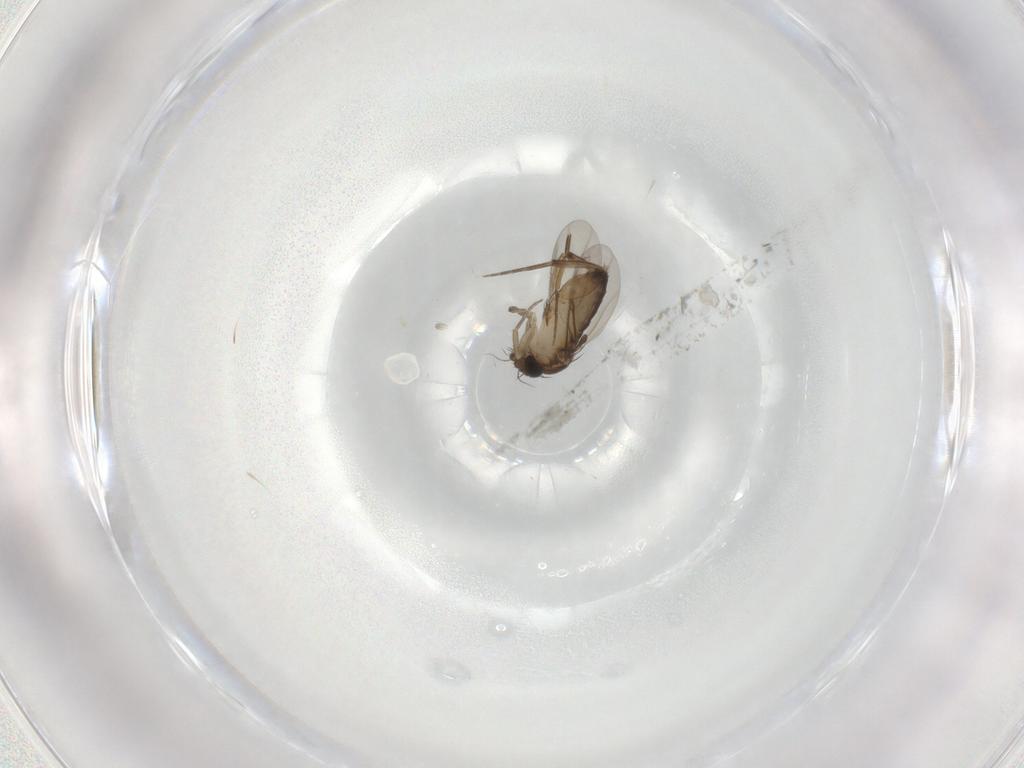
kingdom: Animalia
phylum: Arthropoda
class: Insecta
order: Diptera
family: Phoridae
